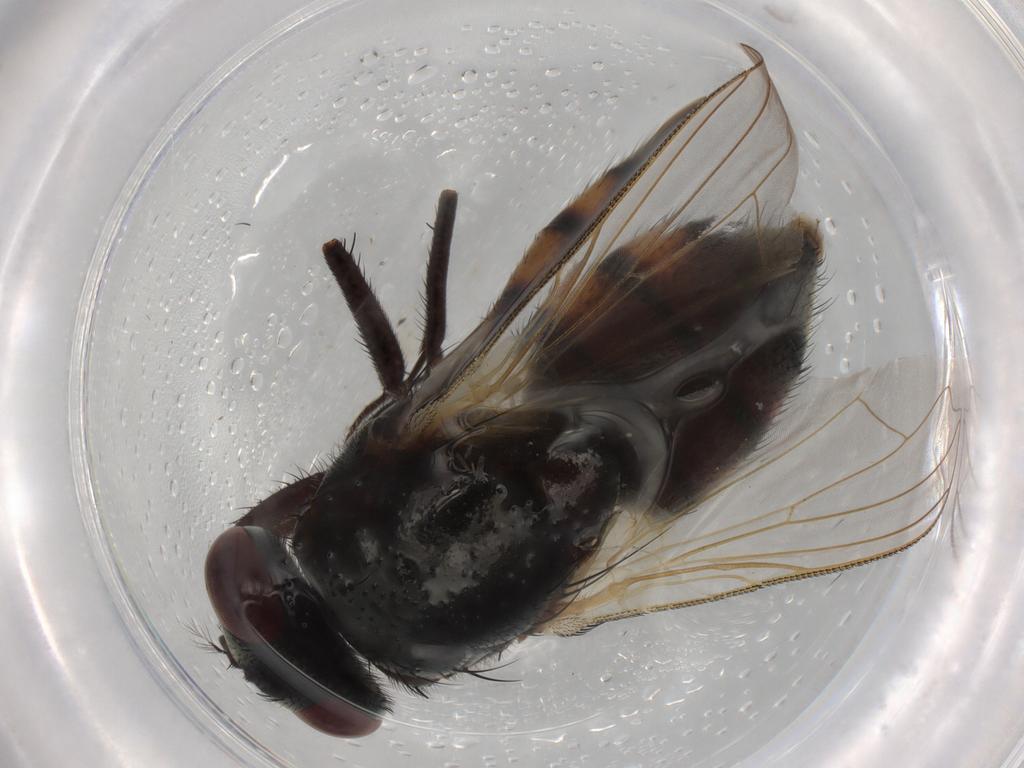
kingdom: Animalia
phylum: Arthropoda
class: Insecta
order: Diptera
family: Muscidae
